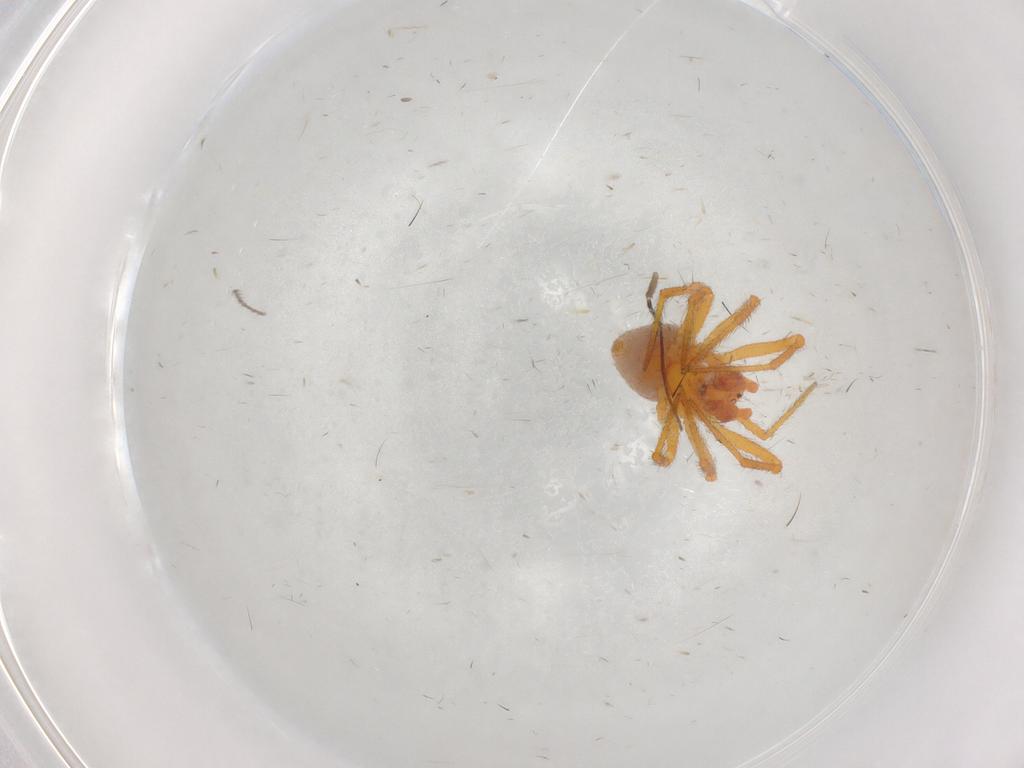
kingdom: Animalia
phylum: Arthropoda
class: Arachnida
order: Araneae
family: Theridiidae
